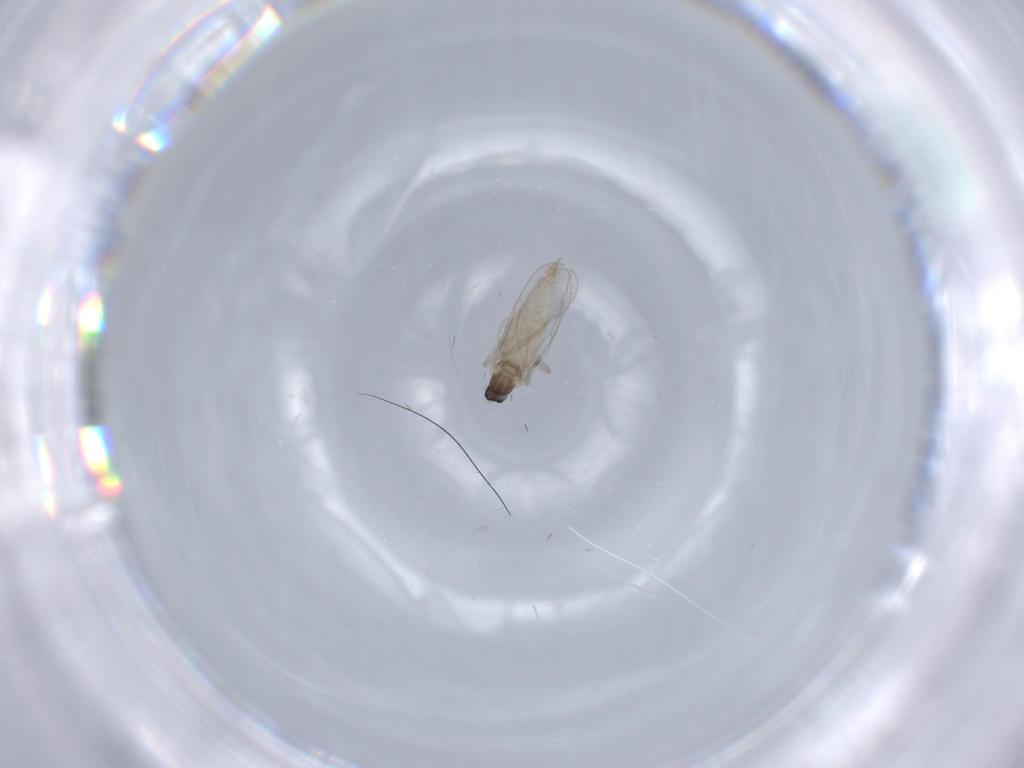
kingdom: Animalia
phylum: Arthropoda
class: Insecta
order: Diptera
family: Cecidomyiidae
